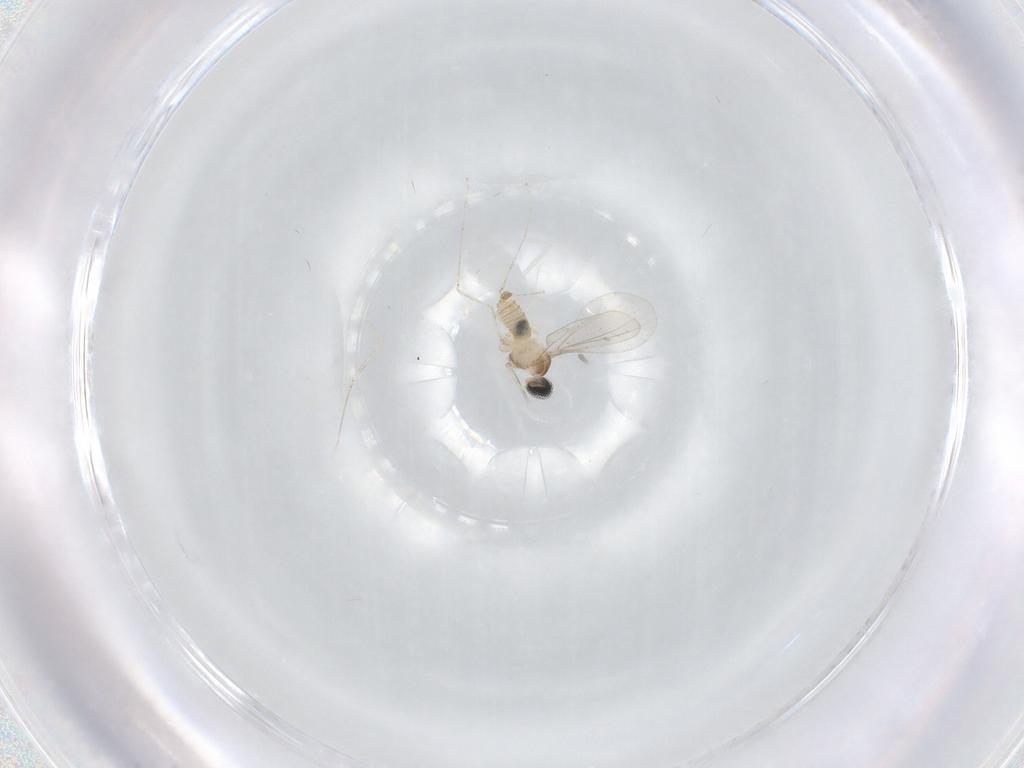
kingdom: Animalia
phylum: Arthropoda
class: Insecta
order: Diptera
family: Cecidomyiidae
